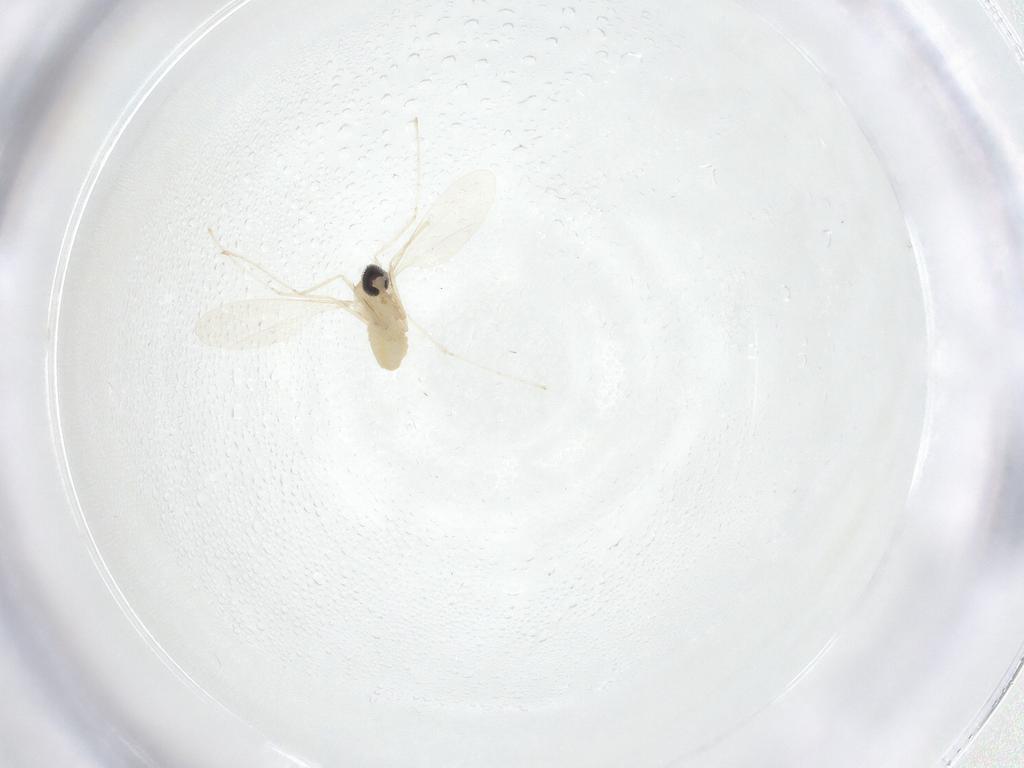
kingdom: Animalia
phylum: Arthropoda
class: Insecta
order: Diptera
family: Cecidomyiidae
